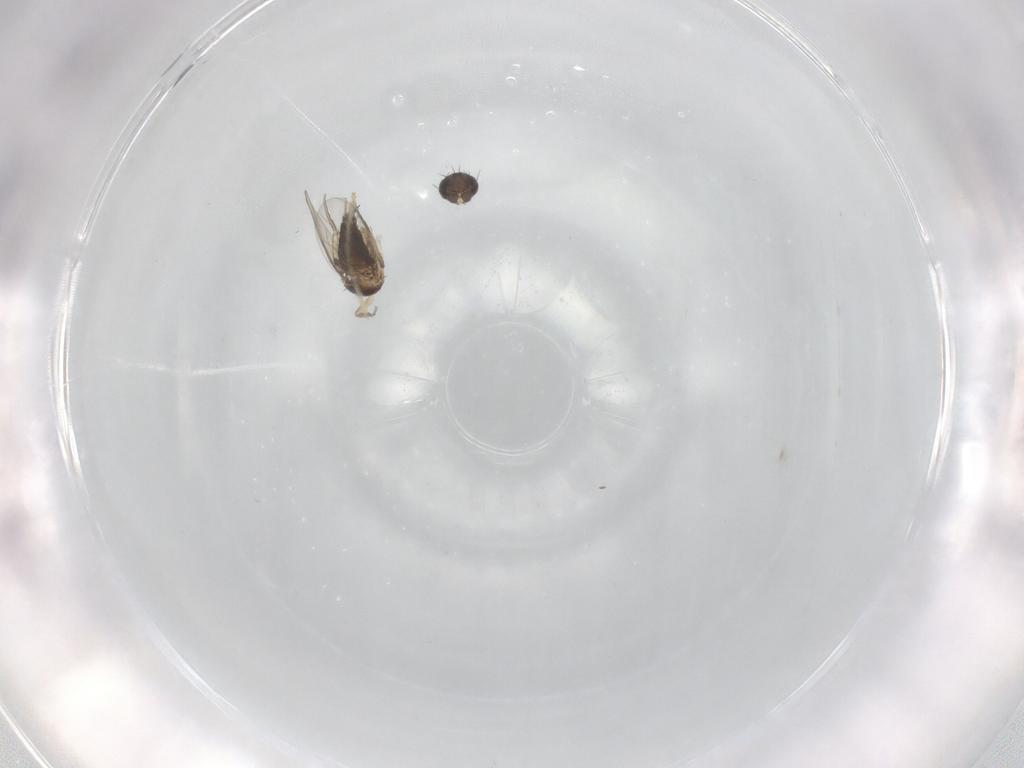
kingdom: Animalia
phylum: Arthropoda
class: Insecta
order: Diptera
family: Phoridae
